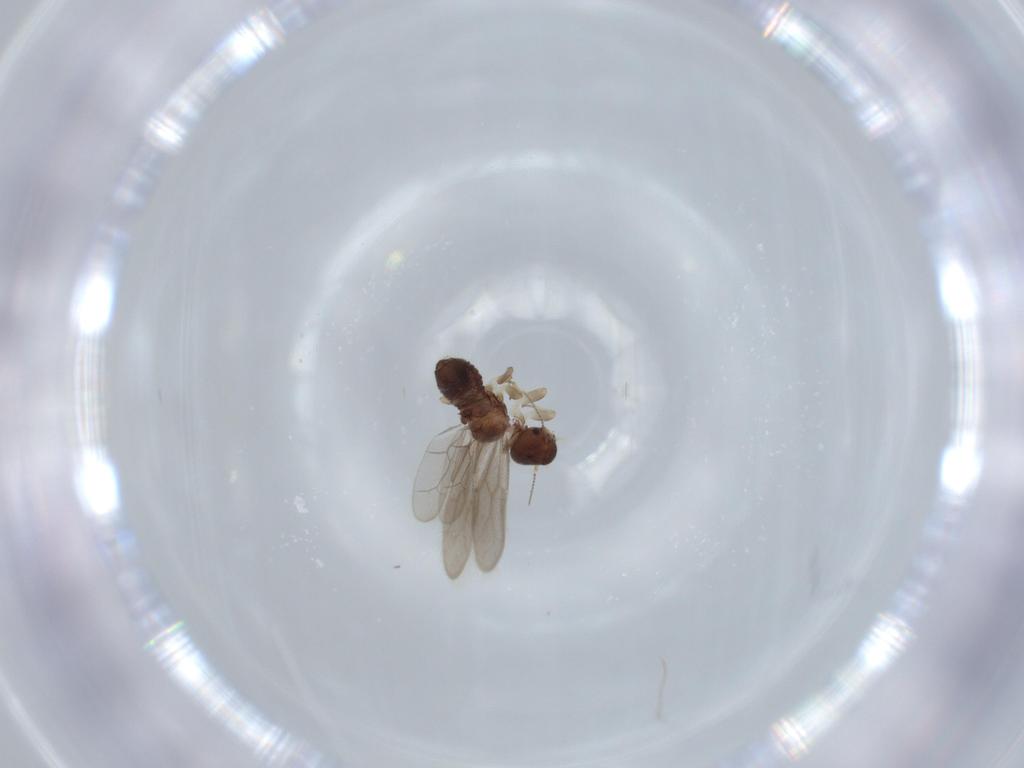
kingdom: Animalia
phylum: Arthropoda
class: Insecta
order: Psocodea
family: Archipsocidae
